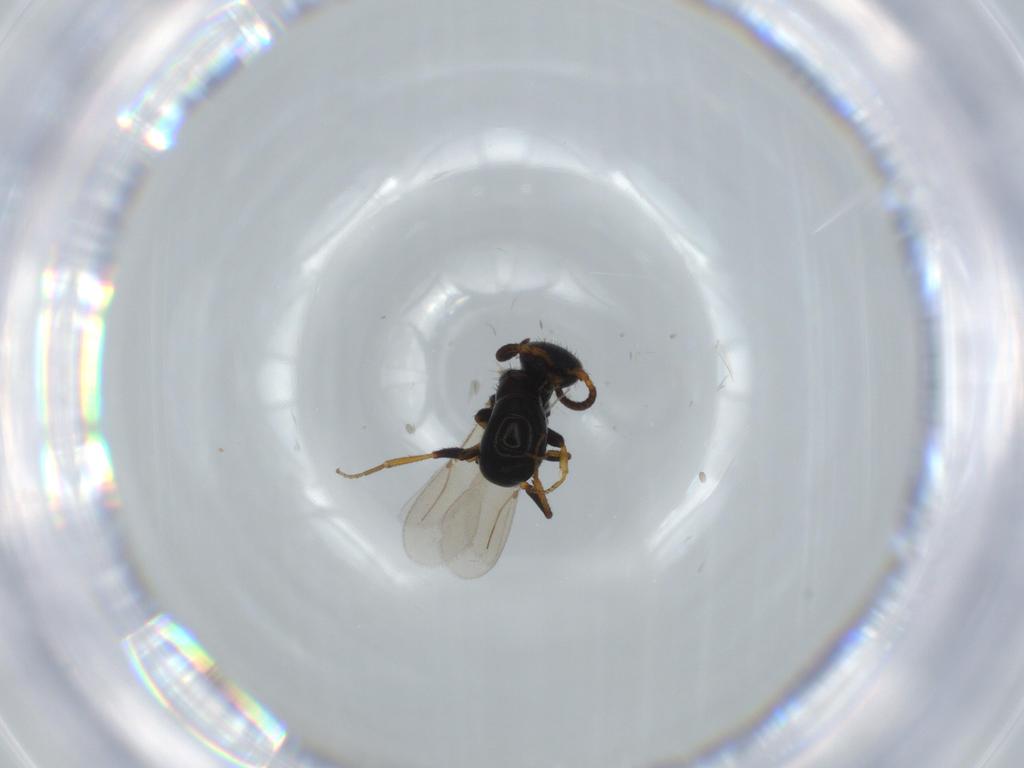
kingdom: Animalia
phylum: Arthropoda
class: Insecta
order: Hymenoptera
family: Bethylidae
